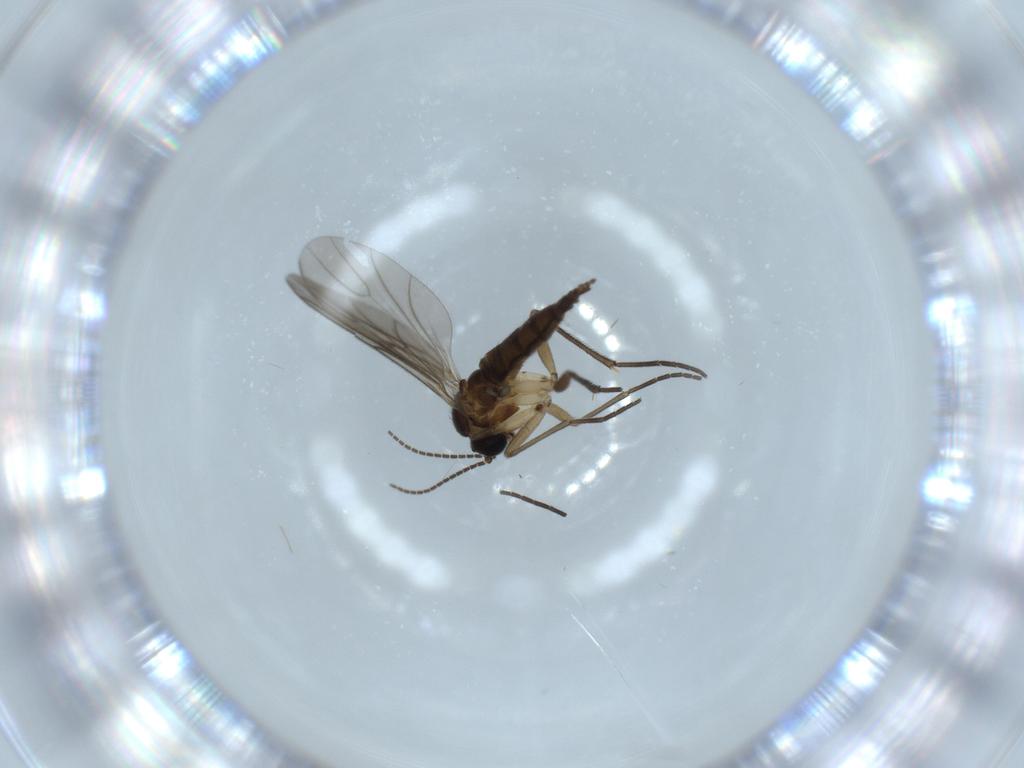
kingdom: Animalia
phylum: Arthropoda
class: Insecta
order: Diptera
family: Sciaridae
